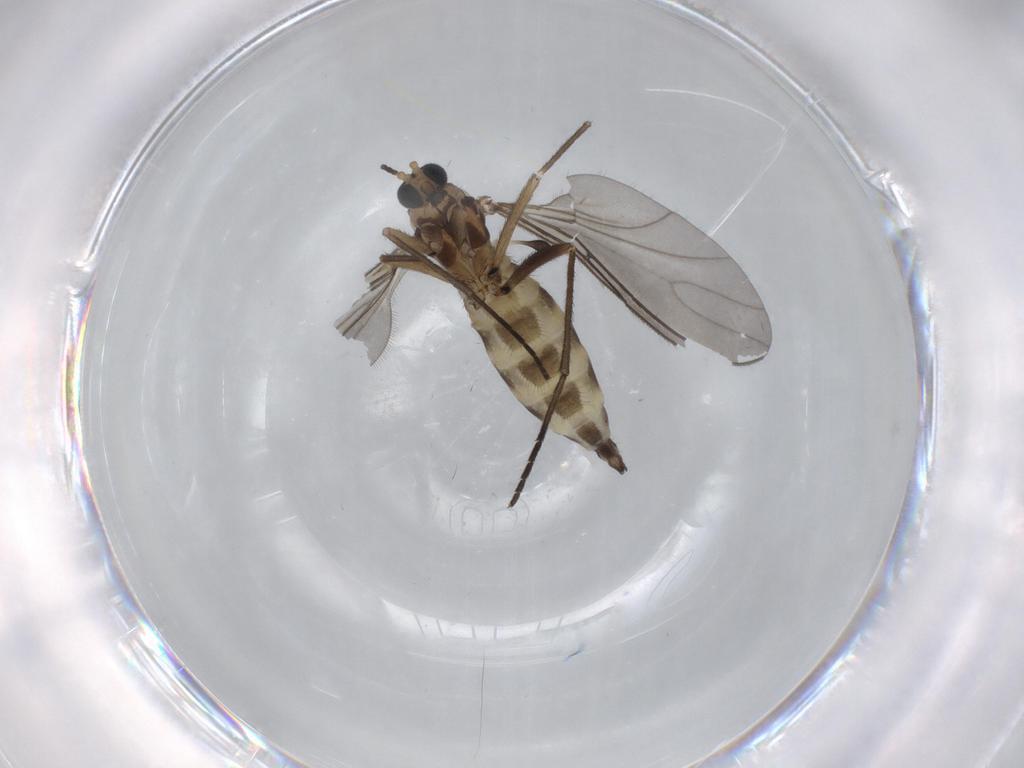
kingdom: Animalia
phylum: Arthropoda
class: Insecta
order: Diptera
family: Sciaridae
